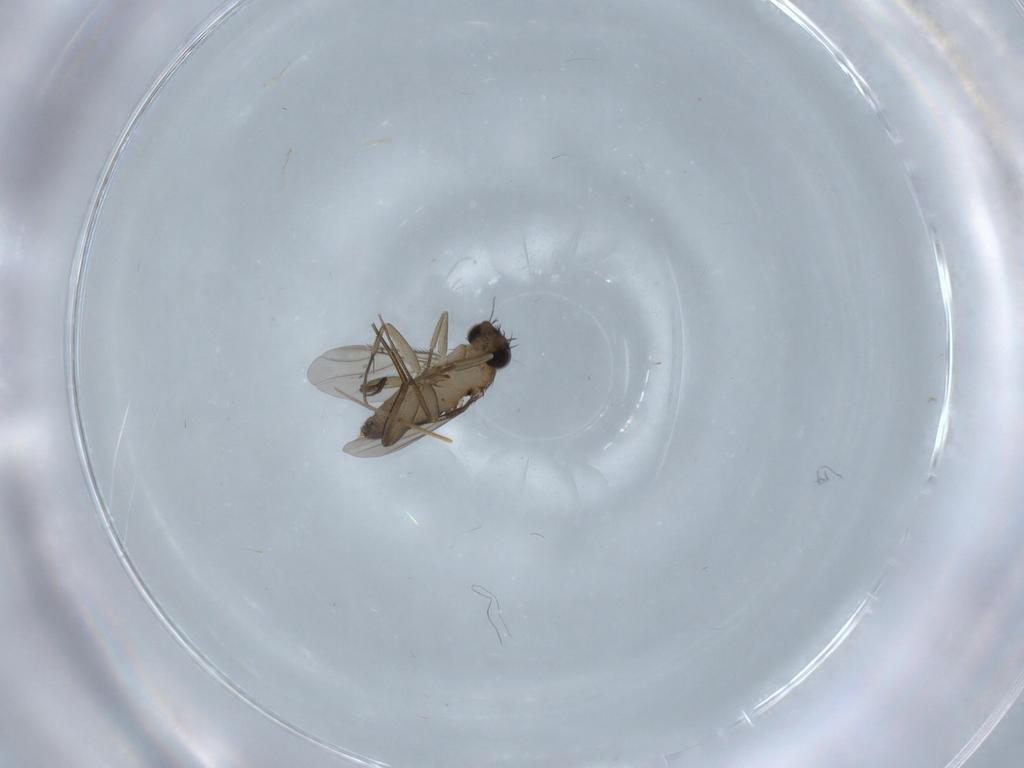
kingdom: Animalia
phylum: Arthropoda
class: Insecta
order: Diptera
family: Phoridae
